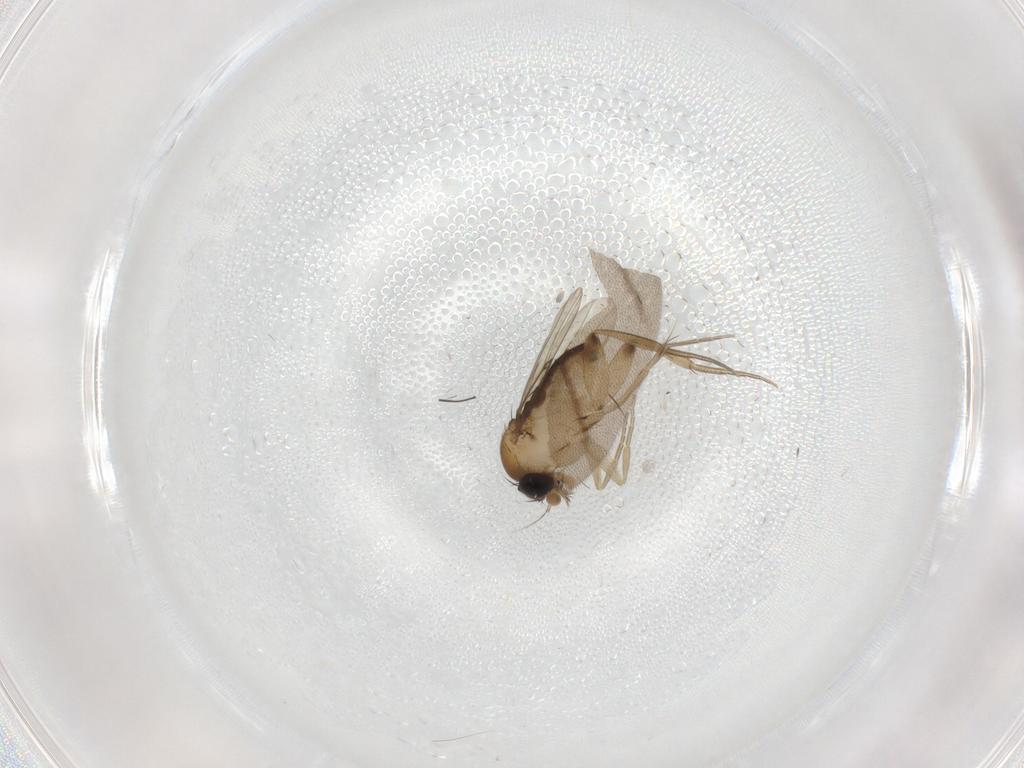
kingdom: Animalia
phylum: Arthropoda
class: Insecta
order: Diptera
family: Phoridae
